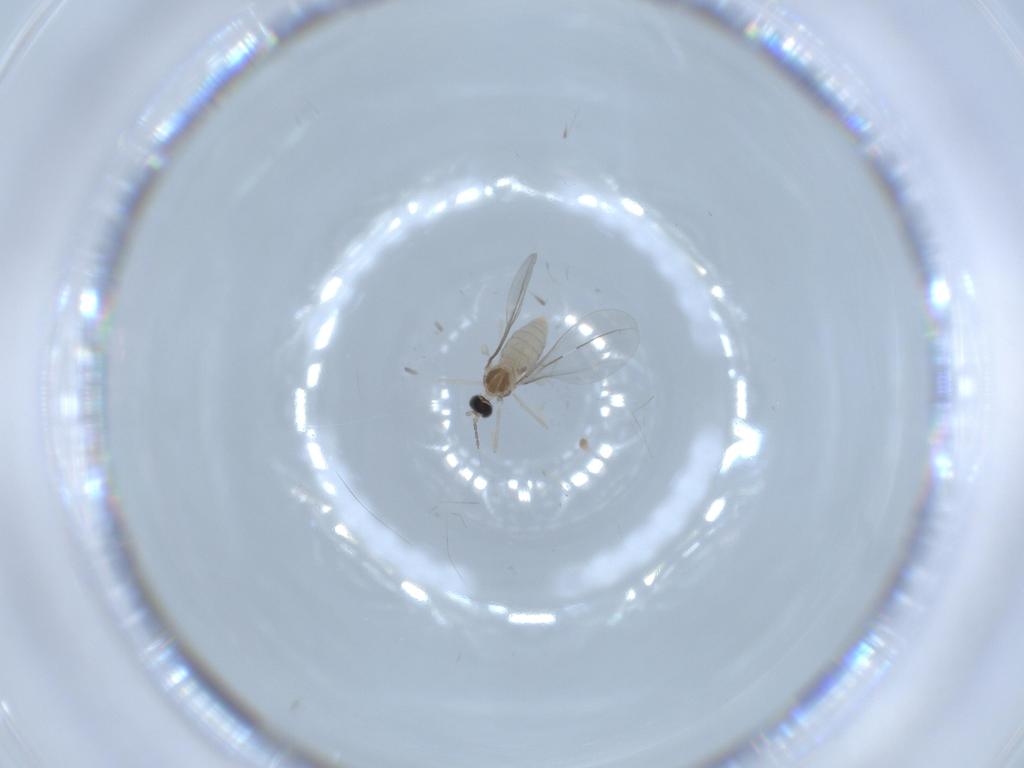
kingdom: Animalia
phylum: Arthropoda
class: Insecta
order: Diptera
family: Cecidomyiidae
